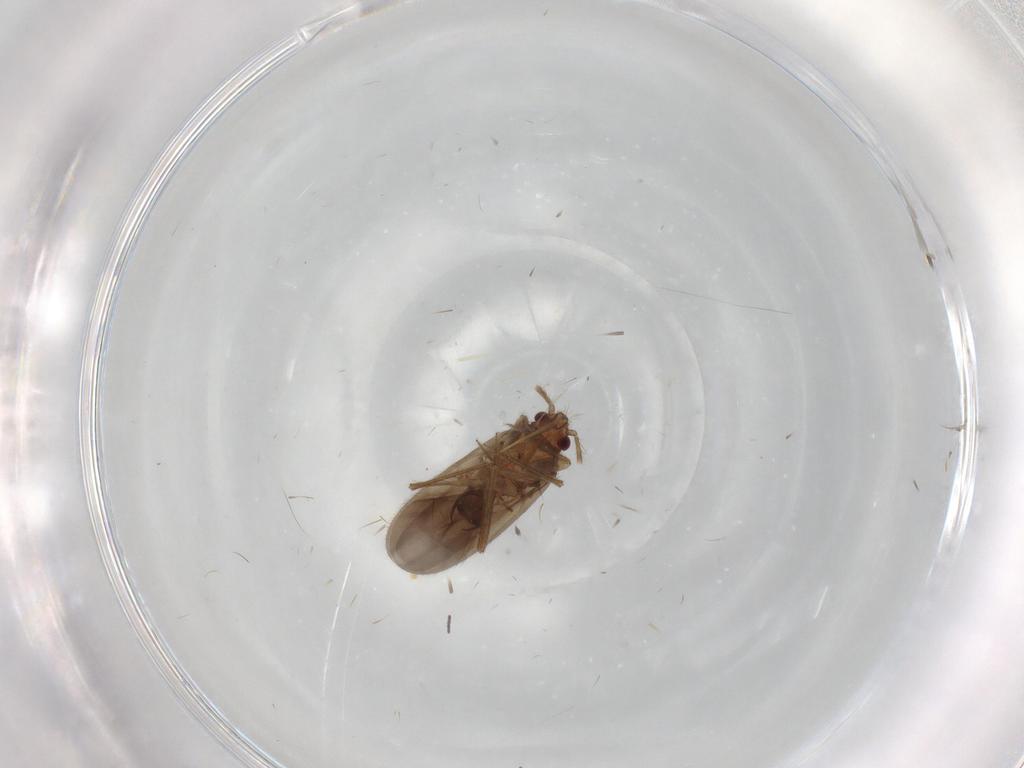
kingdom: Animalia
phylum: Arthropoda
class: Insecta
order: Hemiptera
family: Ceratocombidae
